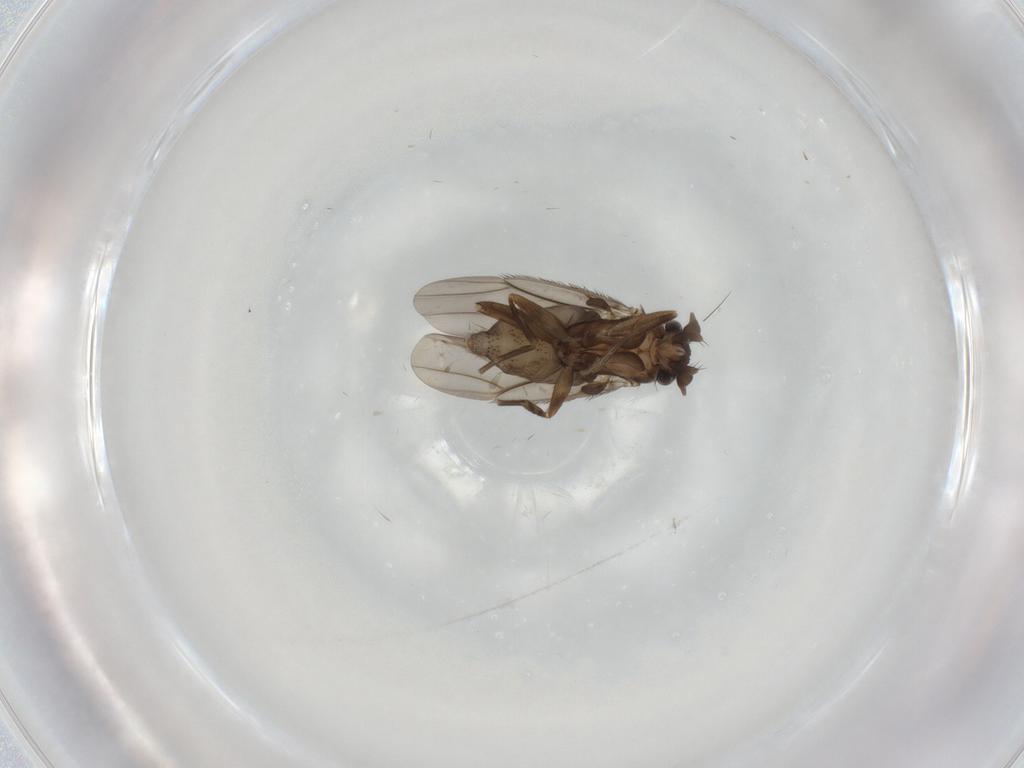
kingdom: Animalia
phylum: Arthropoda
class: Insecta
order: Diptera
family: Phoridae
